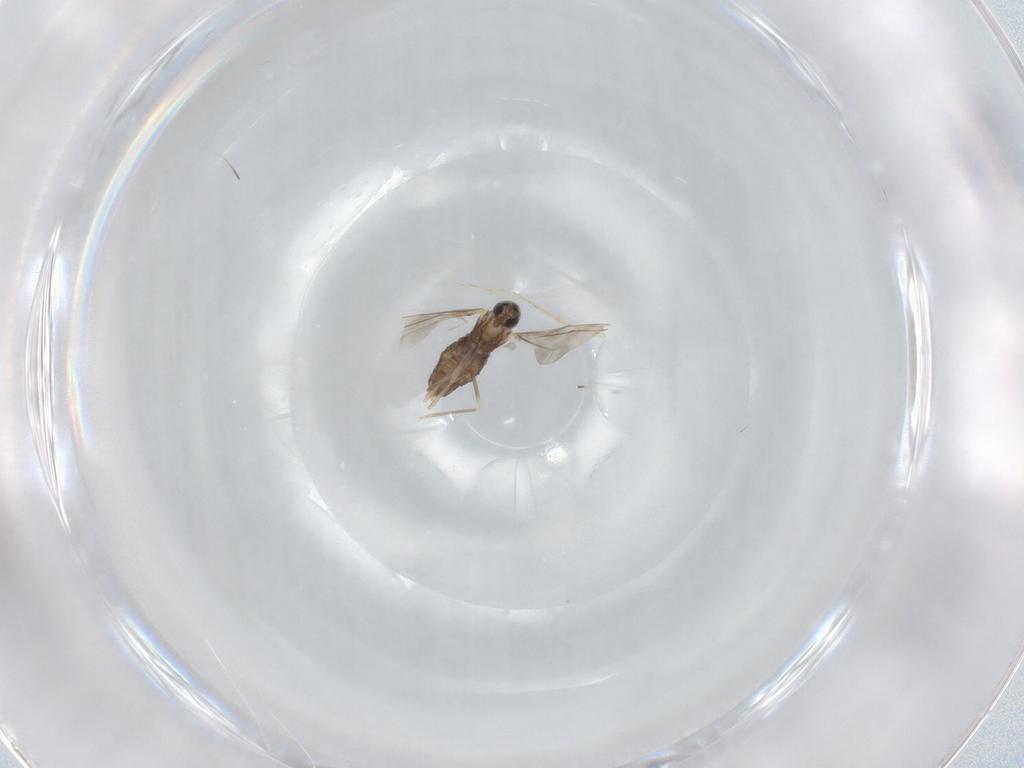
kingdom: Animalia
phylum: Arthropoda
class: Insecta
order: Diptera
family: Cecidomyiidae
